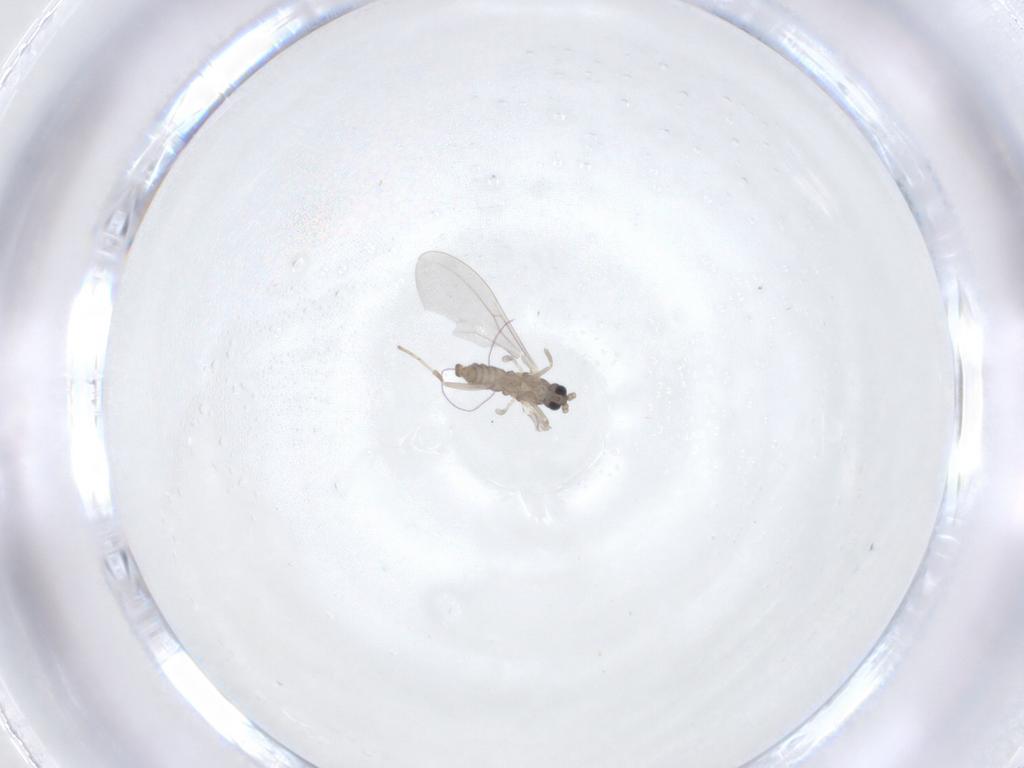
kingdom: Animalia
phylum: Arthropoda
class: Insecta
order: Diptera
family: Cecidomyiidae
